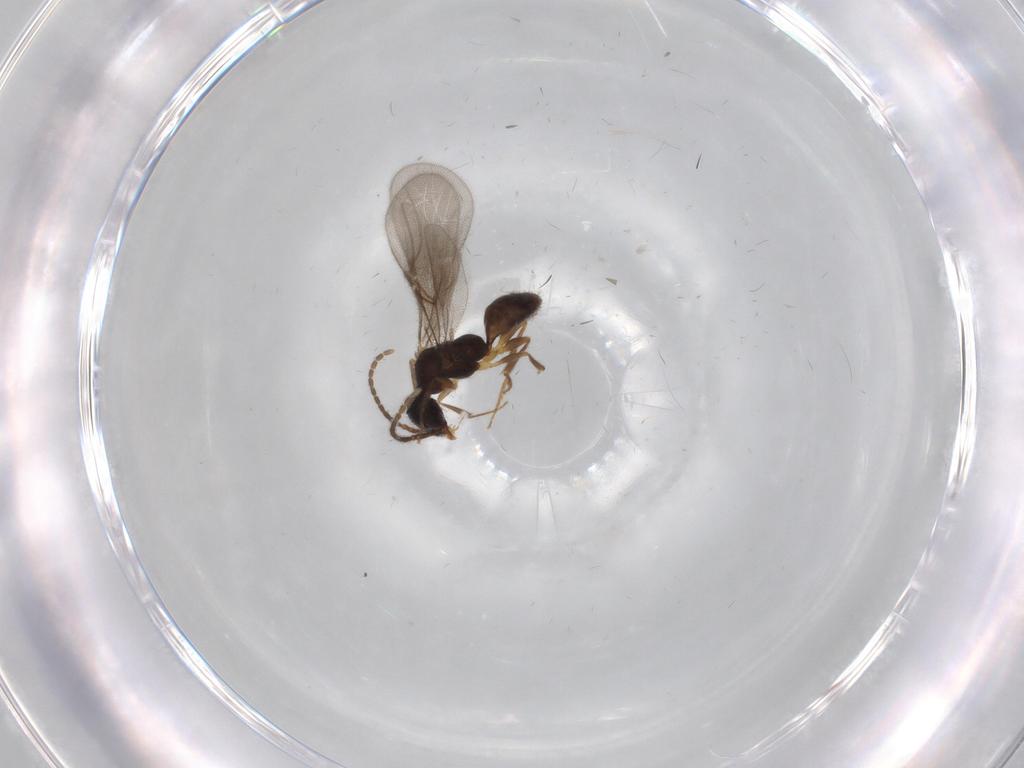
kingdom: Animalia
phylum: Arthropoda
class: Insecta
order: Hymenoptera
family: Bethylidae
